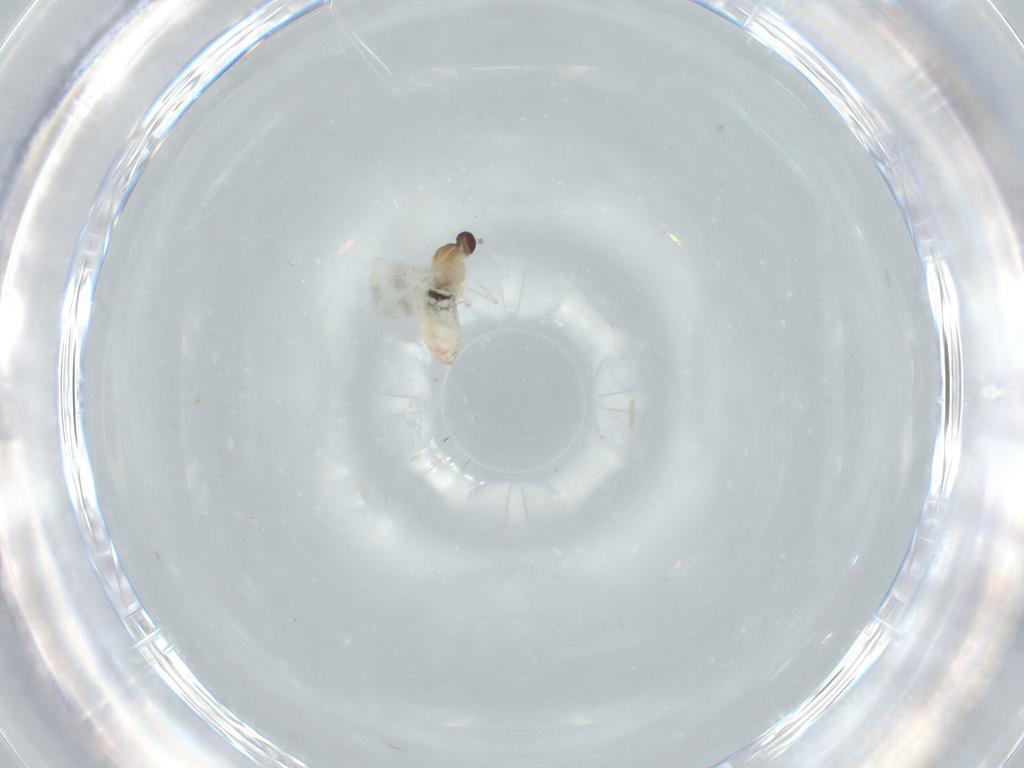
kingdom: Animalia
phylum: Arthropoda
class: Insecta
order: Diptera
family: Cecidomyiidae
